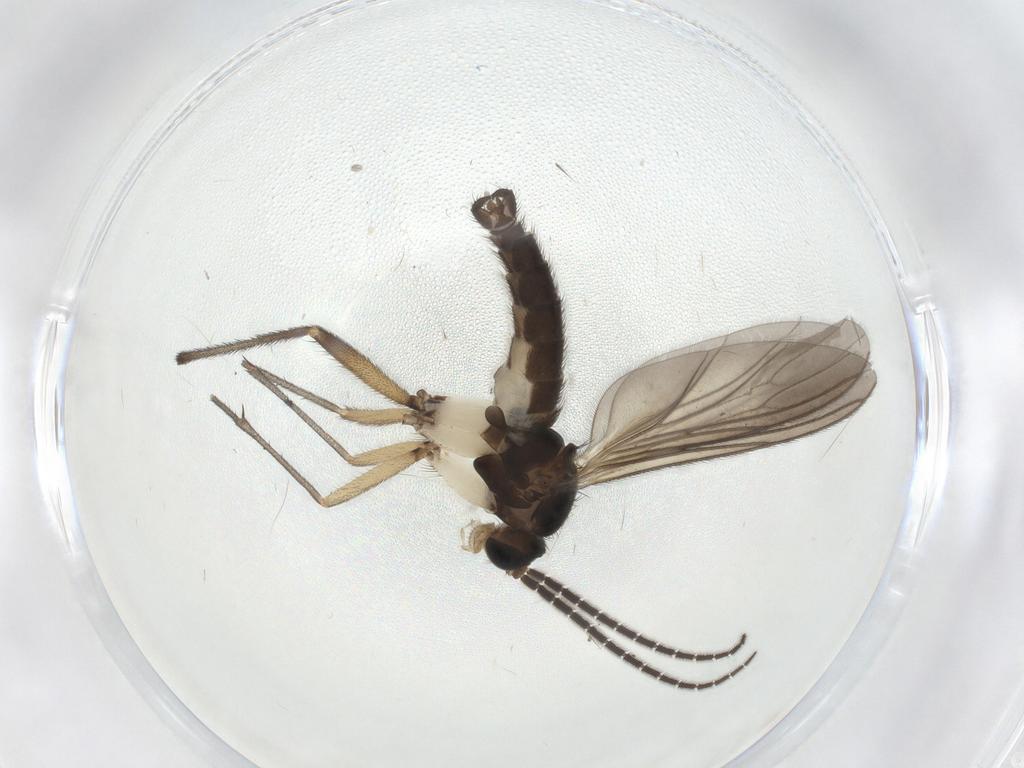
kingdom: Animalia
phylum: Arthropoda
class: Insecta
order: Diptera
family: Sciaridae
